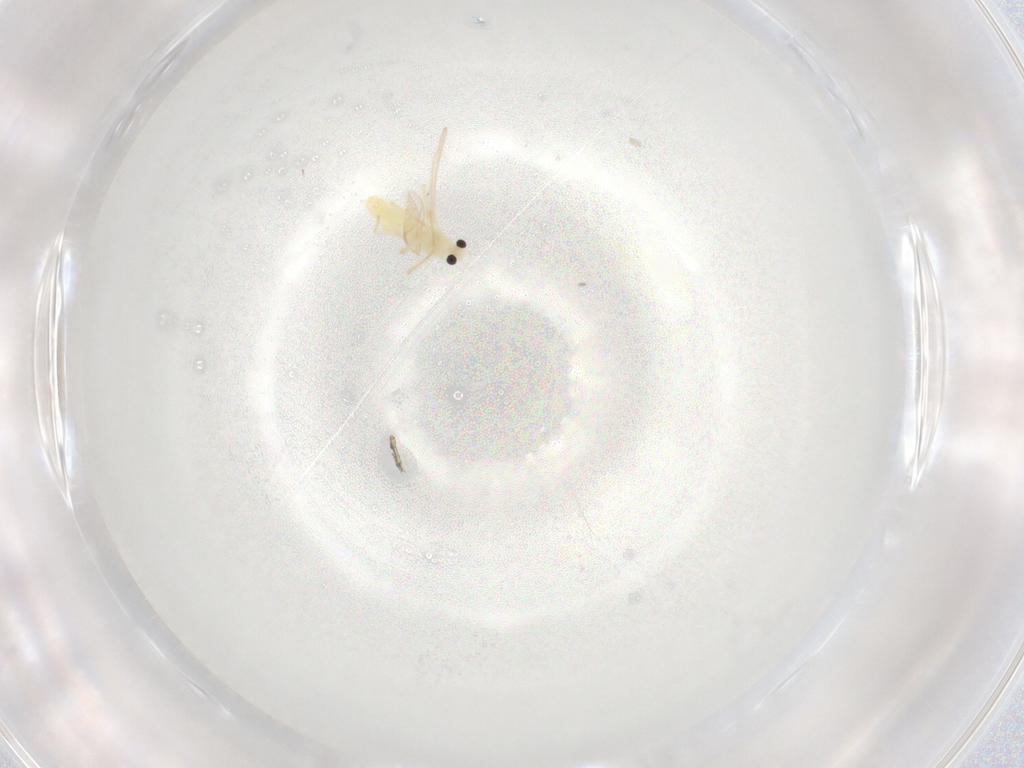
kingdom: Animalia
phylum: Arthropoda
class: Insecta
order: Diptera
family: Chironomidae
